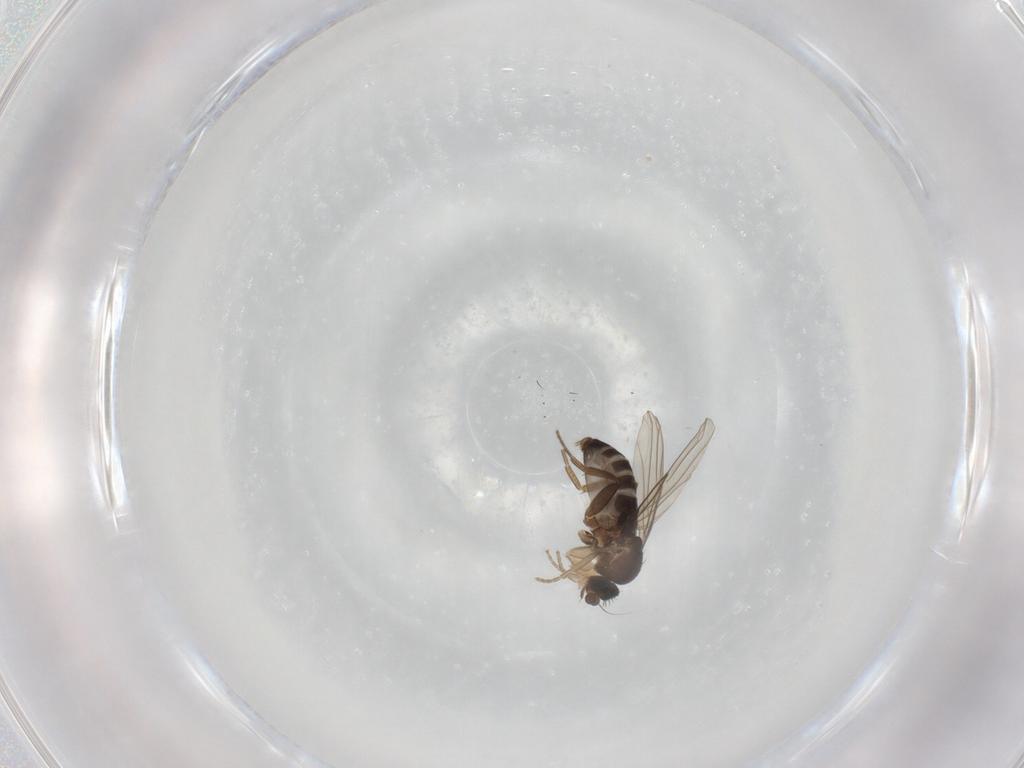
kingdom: Animalia
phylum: Arthropoda
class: Insecta
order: Diptera
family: Phoridae
